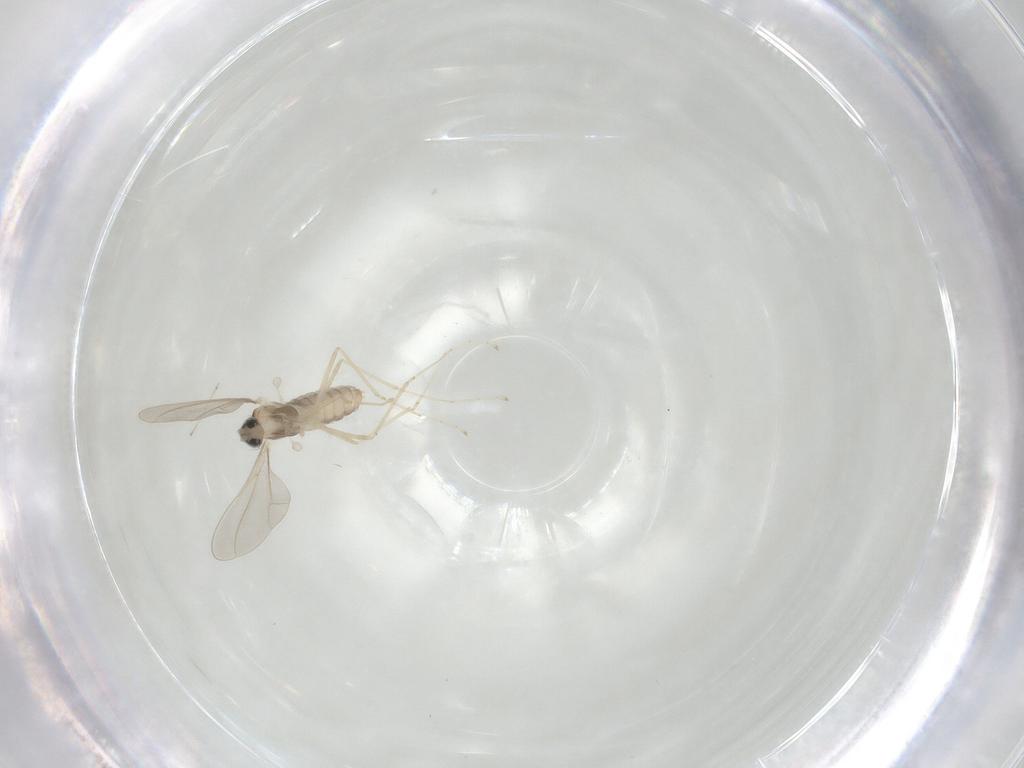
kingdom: Animalia
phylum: Arthropoda
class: Insecta
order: Diptera
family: Cecidomyiidae
